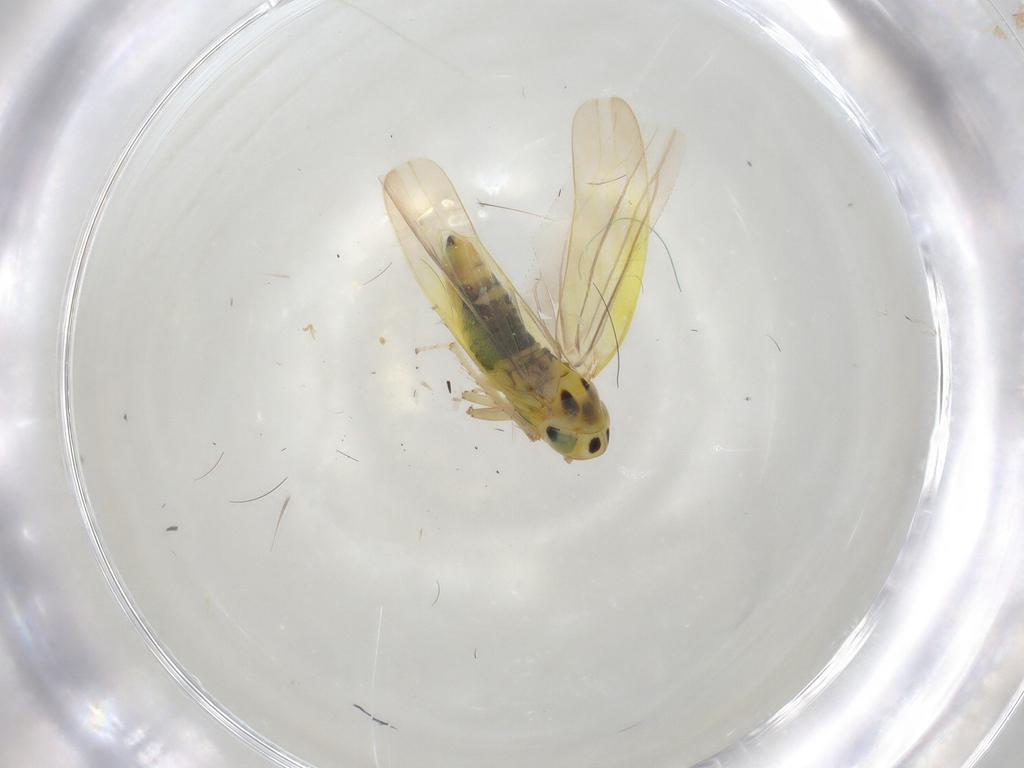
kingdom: Animalia
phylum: Arthropoda
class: Insecta
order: Hemiptera
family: Cicadellidae
